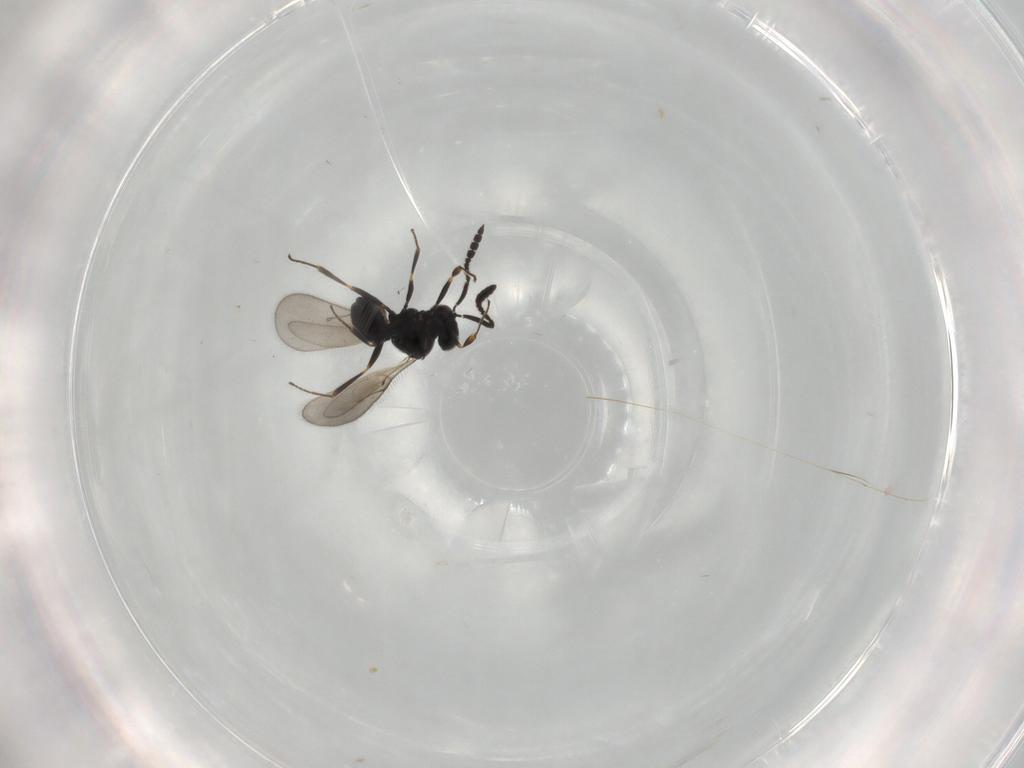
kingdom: Animalia
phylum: Arthropoda
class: Insecta
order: Hymenoptera
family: Scelionidae
